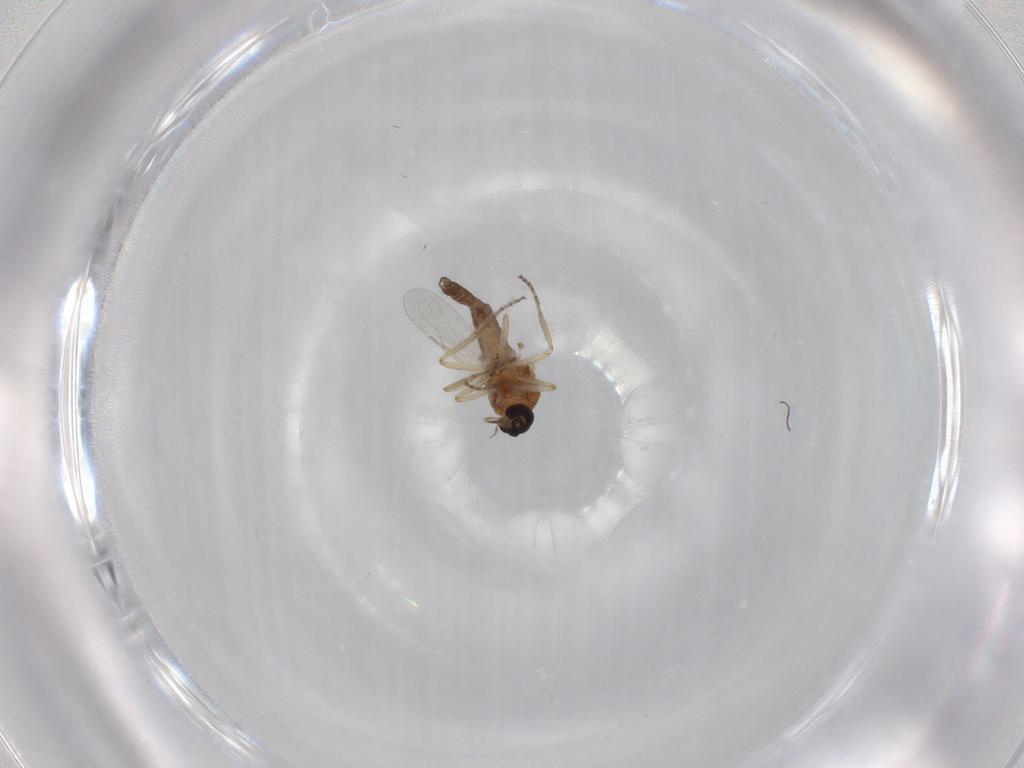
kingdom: Animalia
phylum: Arthropoda
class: Insecta
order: Diptera
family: Ceratopogonidae
